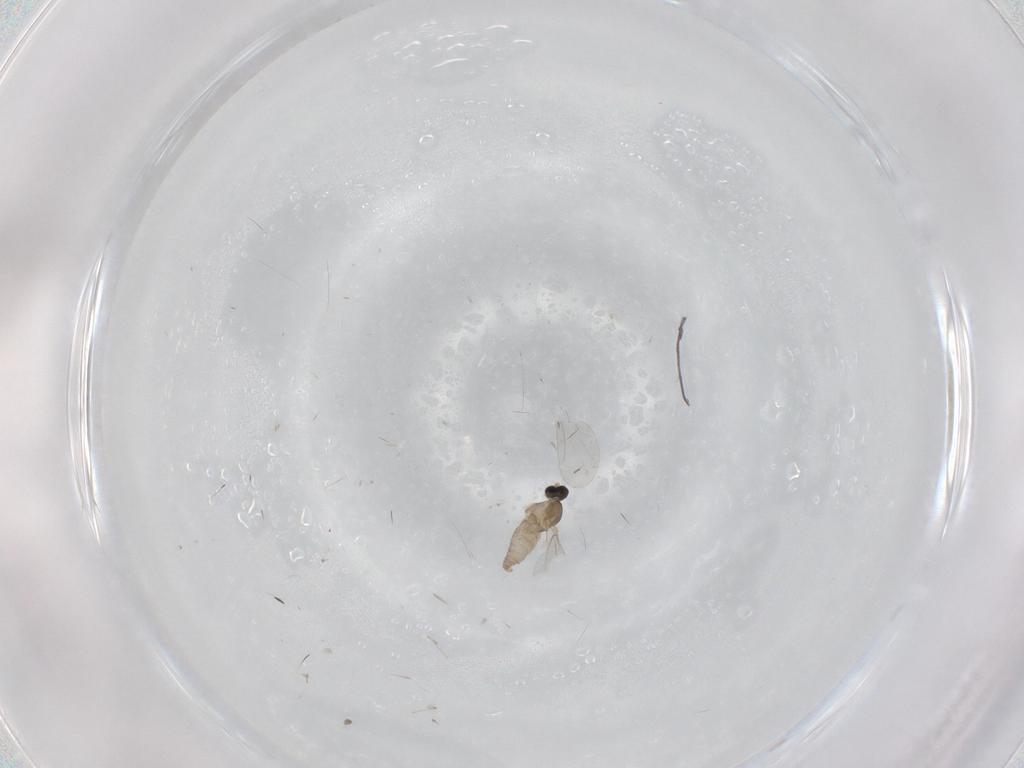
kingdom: Animalia
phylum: Arthropoda
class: Insecta
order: Diptera
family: Cecidomyiidae
